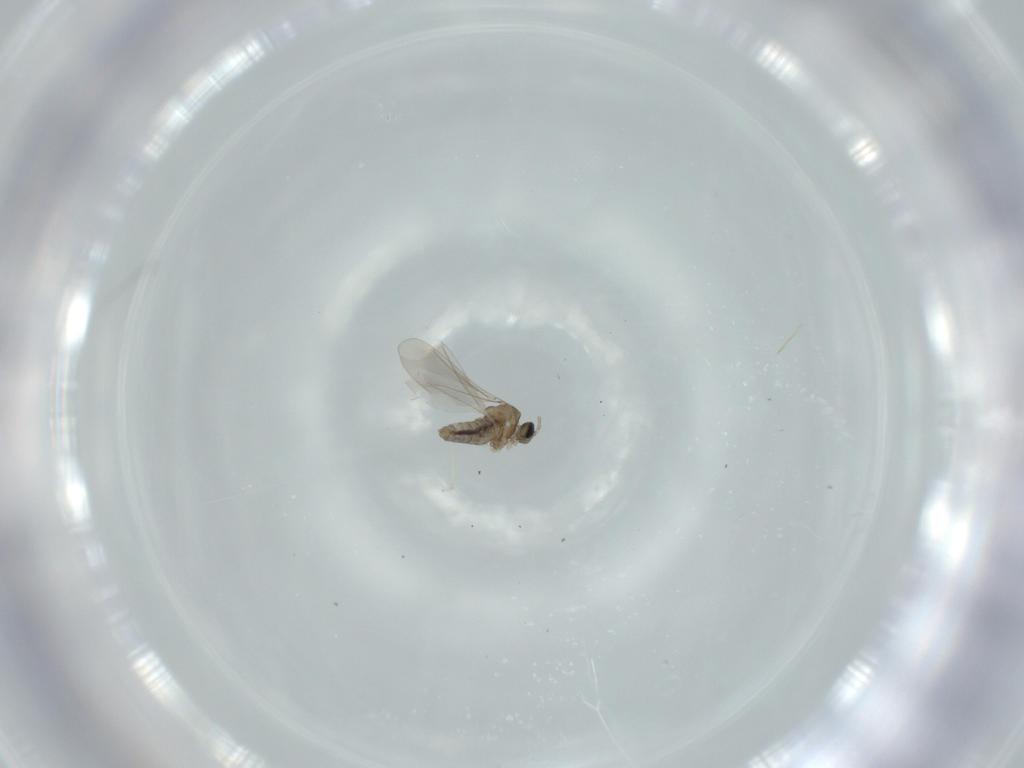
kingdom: Animalia
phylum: Arthropoda
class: Insecta
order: Diptera
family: Cecidomyiidae
